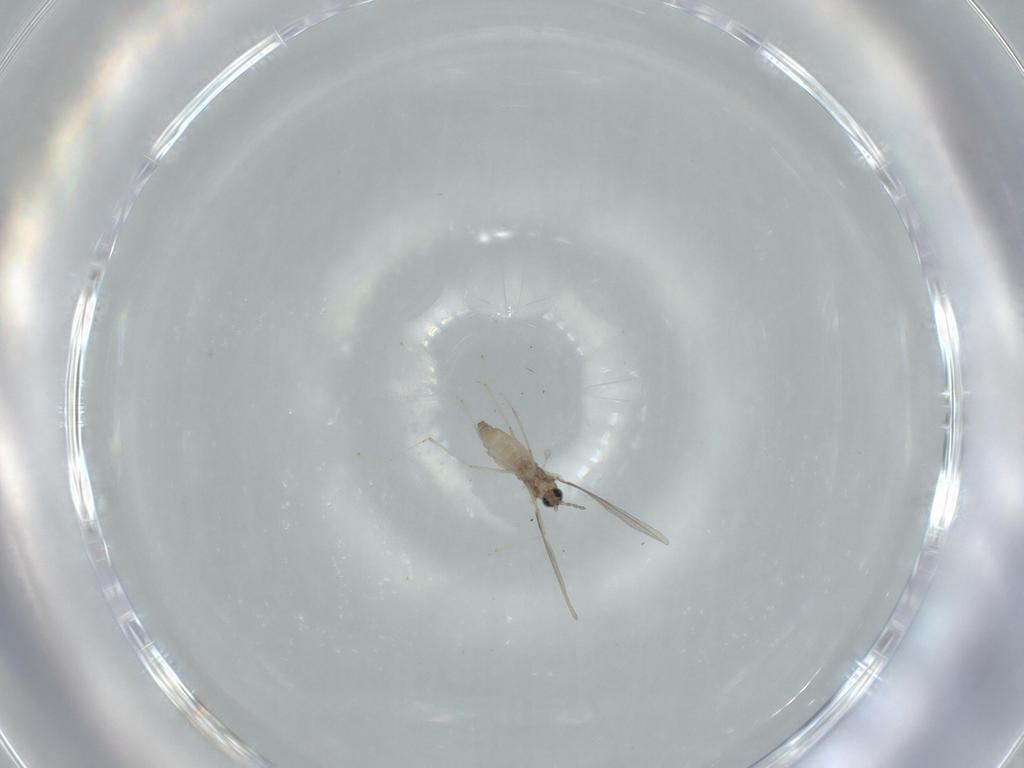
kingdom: Animalia
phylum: Arthropoda
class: Insecta
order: Diptera
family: Cecidomyiidae
